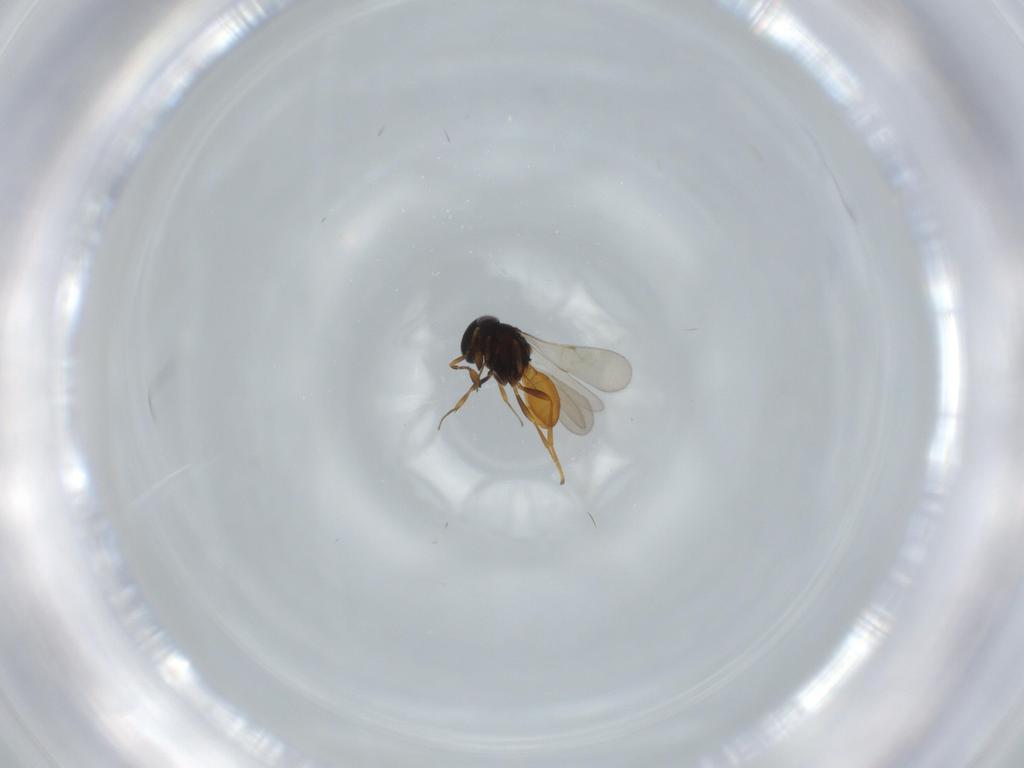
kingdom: Animalia
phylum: Arthropoda
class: Insecta
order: Hymenoptera
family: Scelionidae
